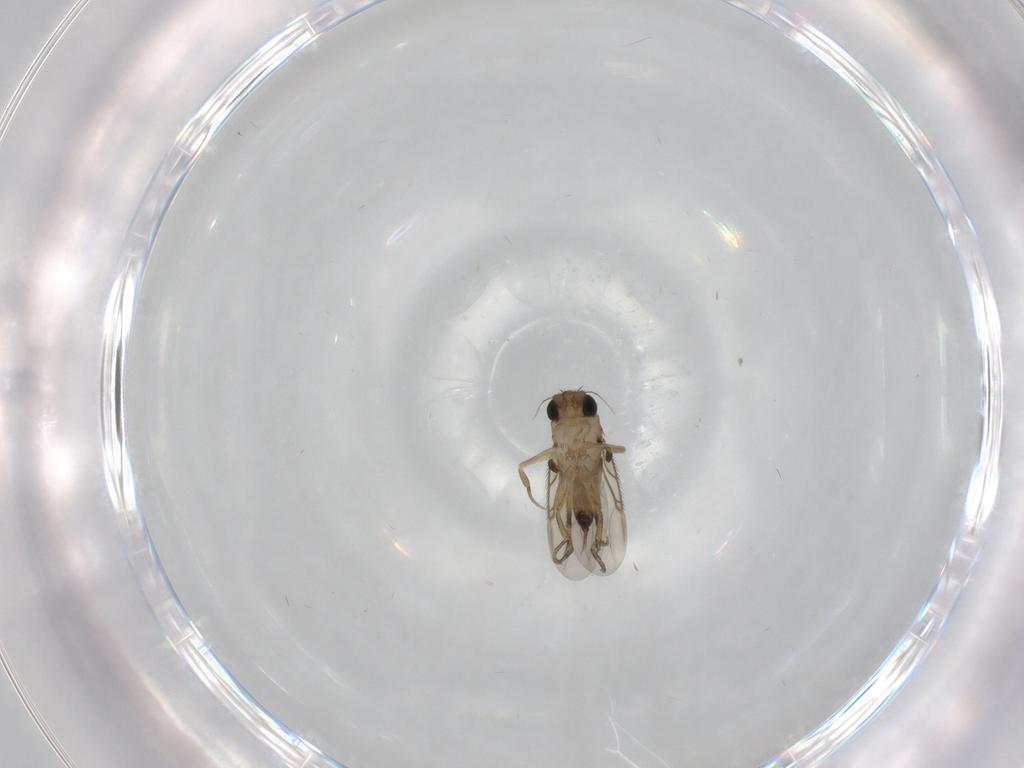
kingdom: Animalia
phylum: Arthropoda
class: Insecta
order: Diptera
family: Phoridae
